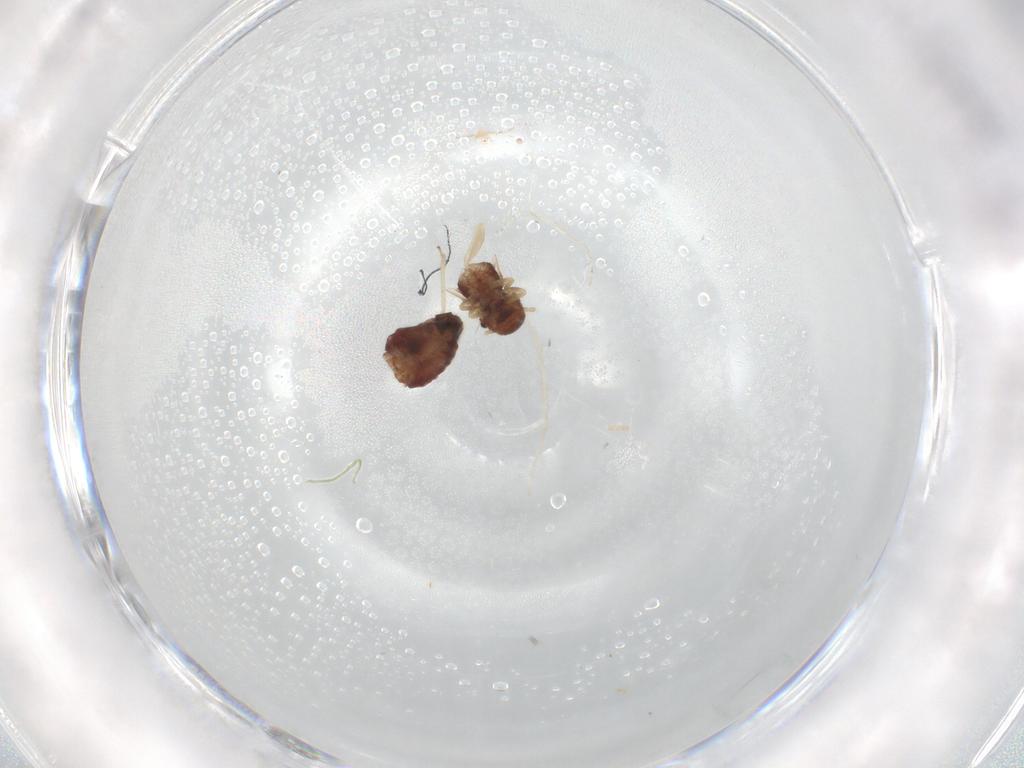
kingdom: Animalia
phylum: Arthropoda
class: Insecta
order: Psocodea
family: Archipsocidae
